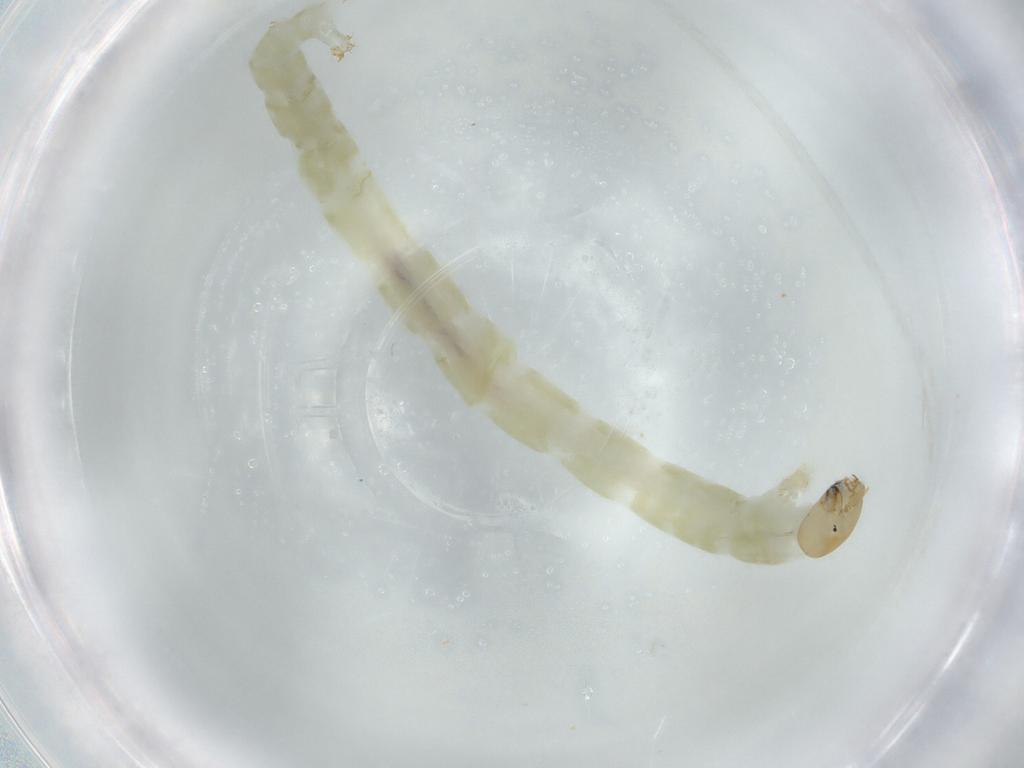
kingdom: Animalia
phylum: Arthropoda
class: Insecta
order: Diptera
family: Chironomidae
